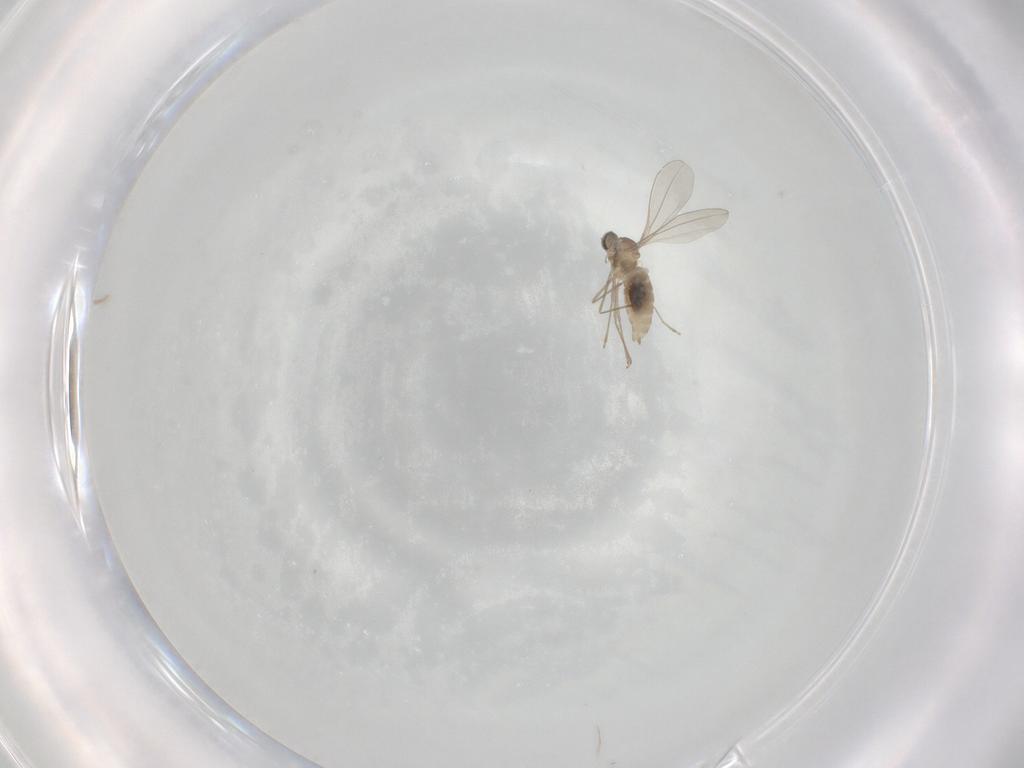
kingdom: Animalia
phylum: Arthropoda
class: Insecta
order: Diptera
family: Cecidomyiidae
